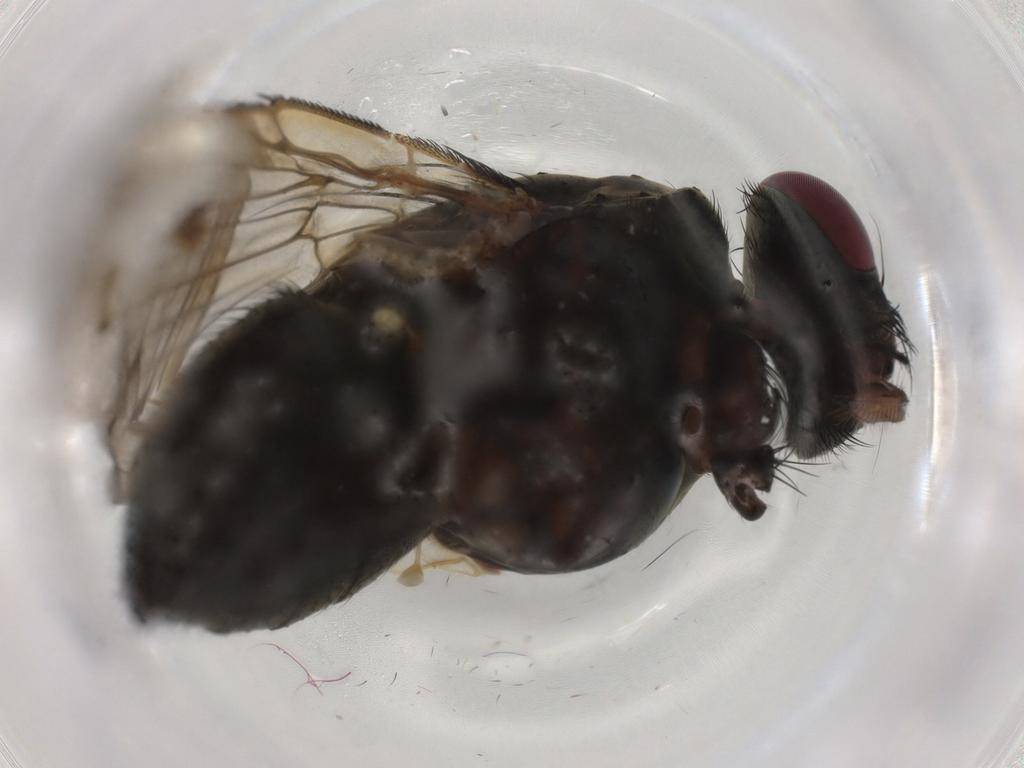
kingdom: Animalia
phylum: Arthropoda
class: Insecta
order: Diptera
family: Muscidae
